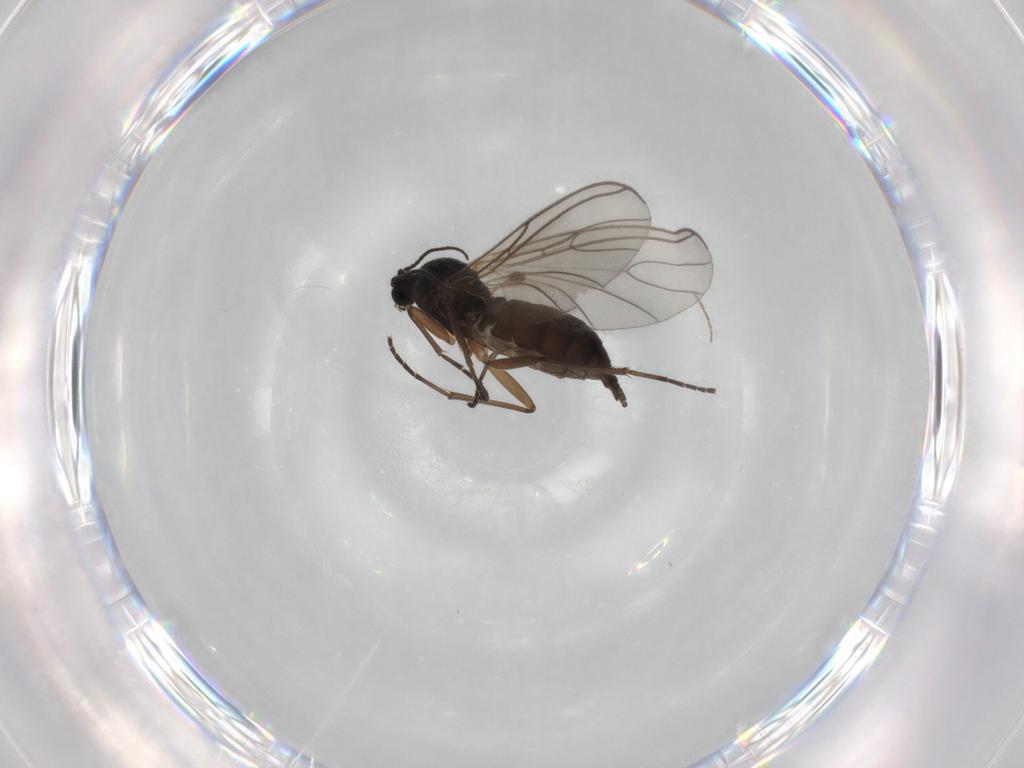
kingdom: Animalia
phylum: Arthropoda
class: Insecta
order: Diptera
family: Sciaridae
